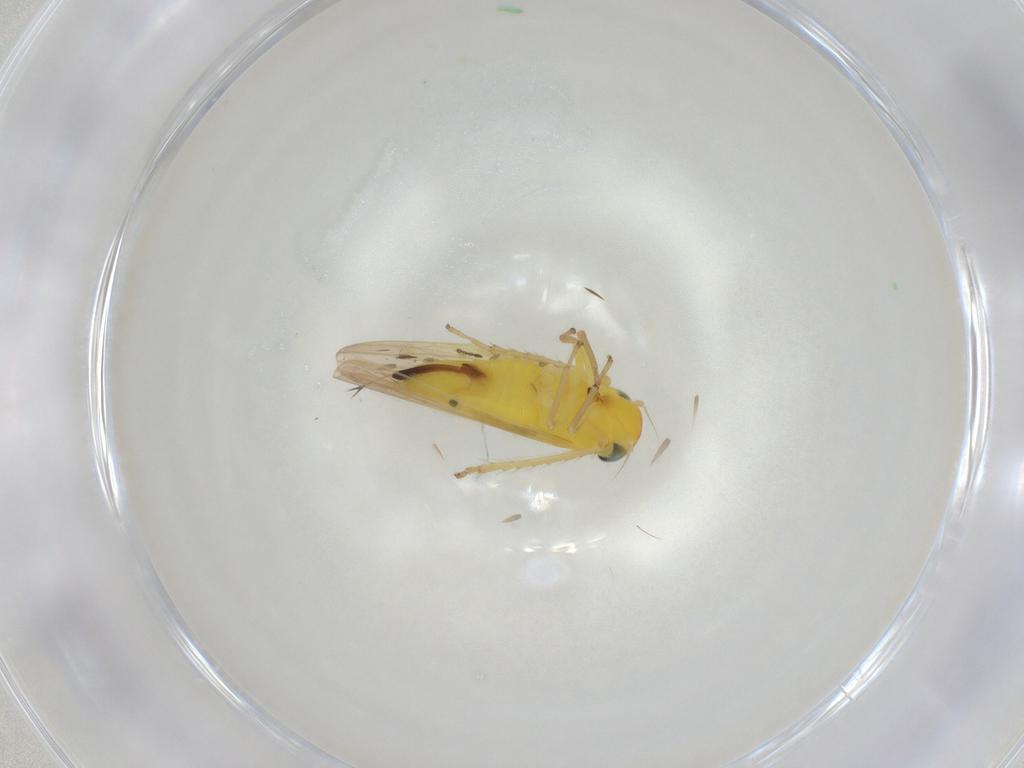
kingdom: Animalia
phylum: Arthropoda
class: Insecta
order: Hemiptera
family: Cicadellidae
